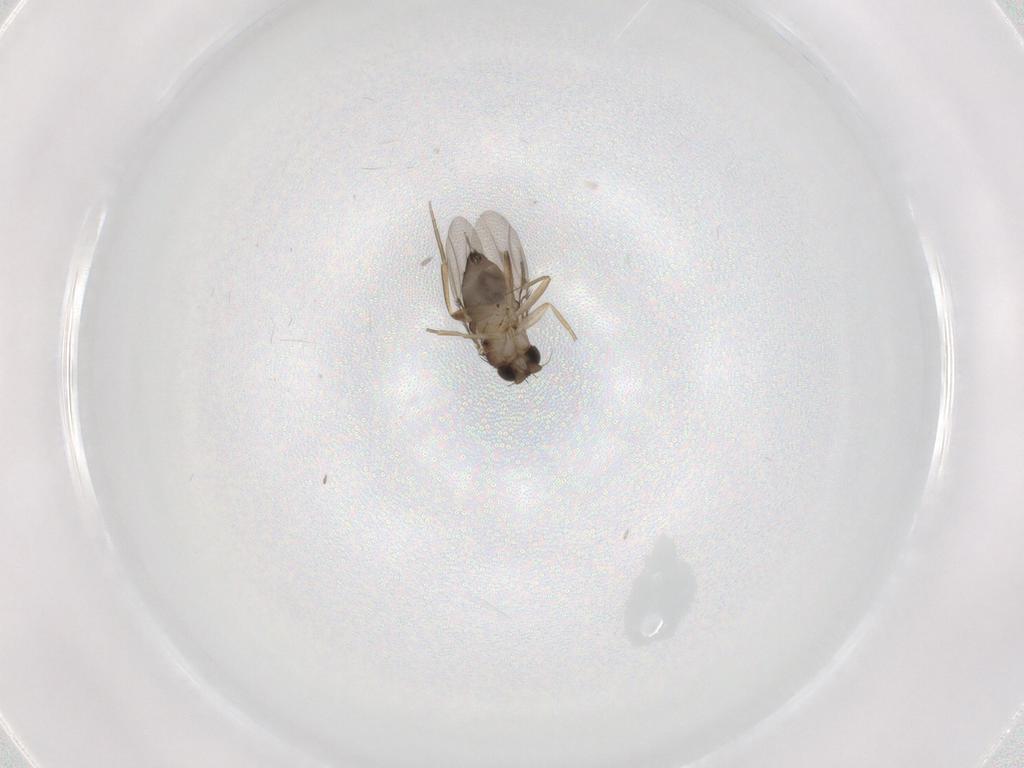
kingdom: Animalia
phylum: Arthropoda
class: Insecta
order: Diptera
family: Phoridae
